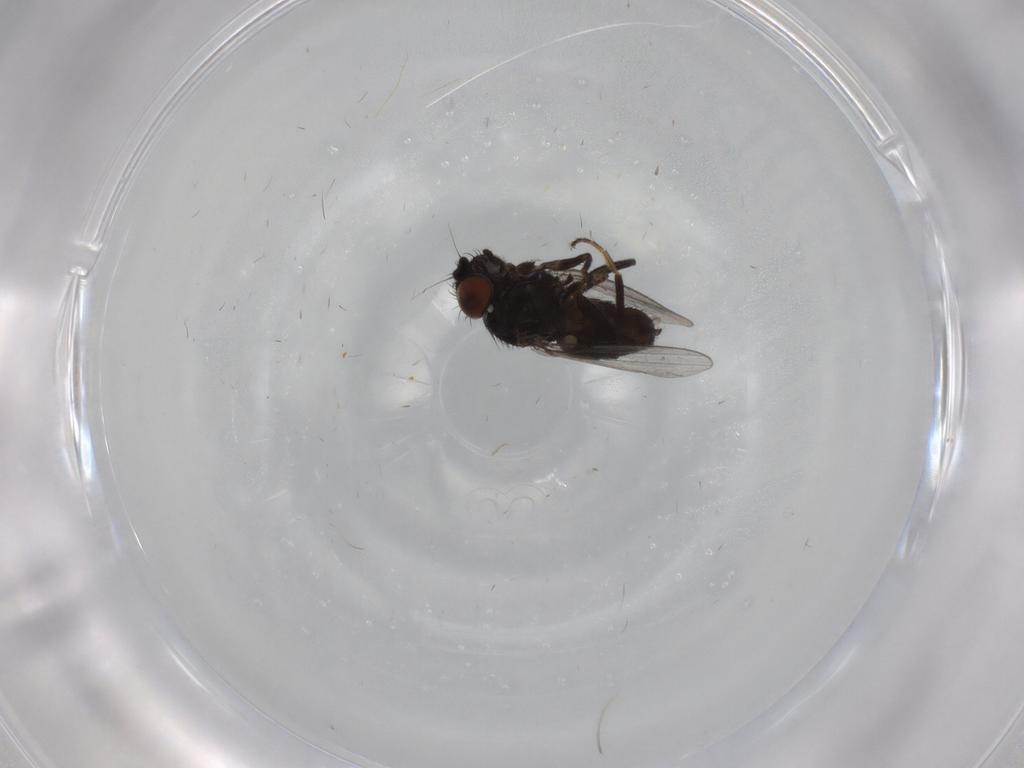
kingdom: Animalia
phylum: Arthropoda
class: Insecta
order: Diptera
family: Milichiidae
